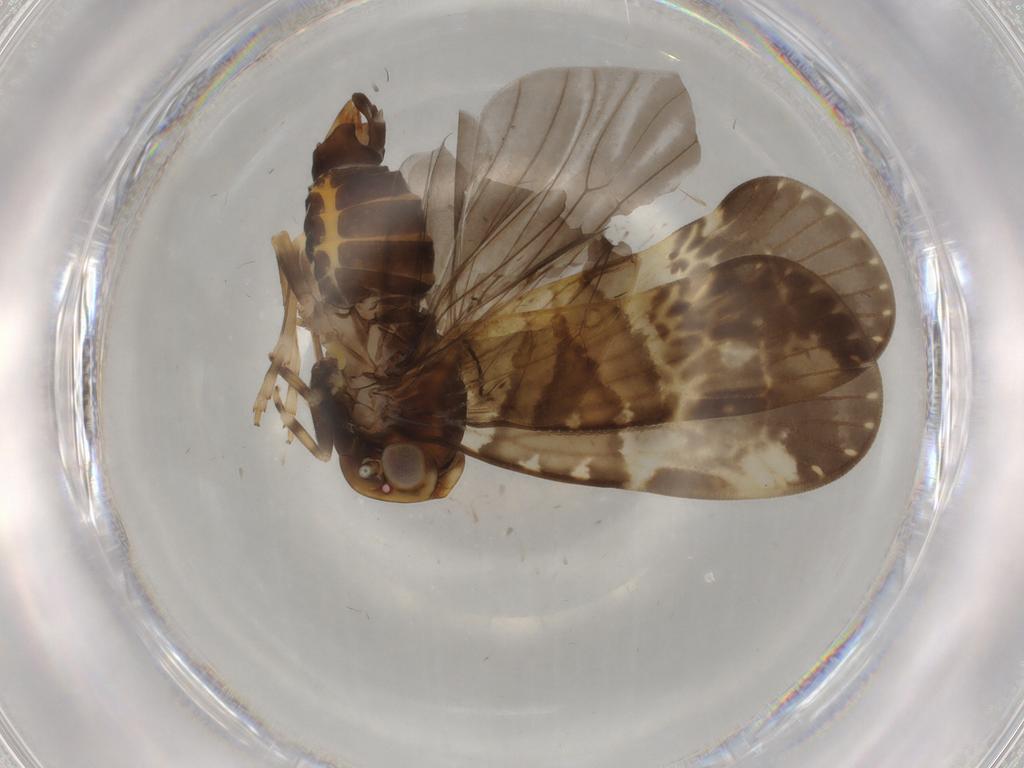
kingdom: Animalia
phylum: Arthropoda
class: Insecta
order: Hemiptera
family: Cixiidae
